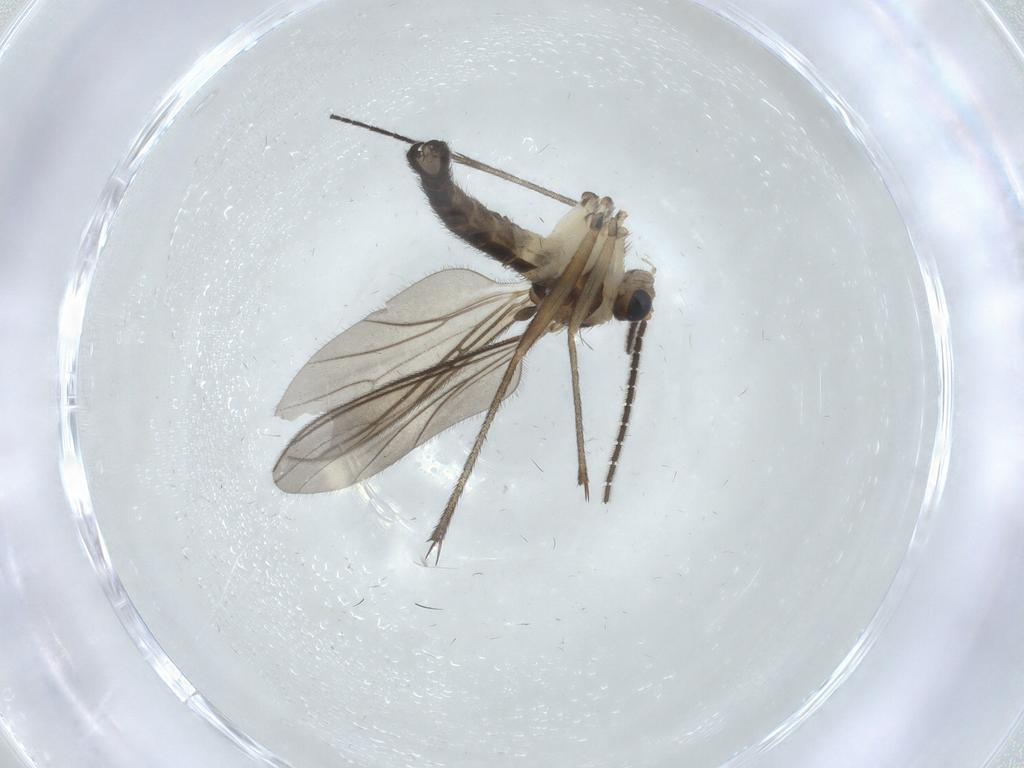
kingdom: Animalia
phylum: Arthropoda
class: Insecta
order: Diptera
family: Sciaridae
